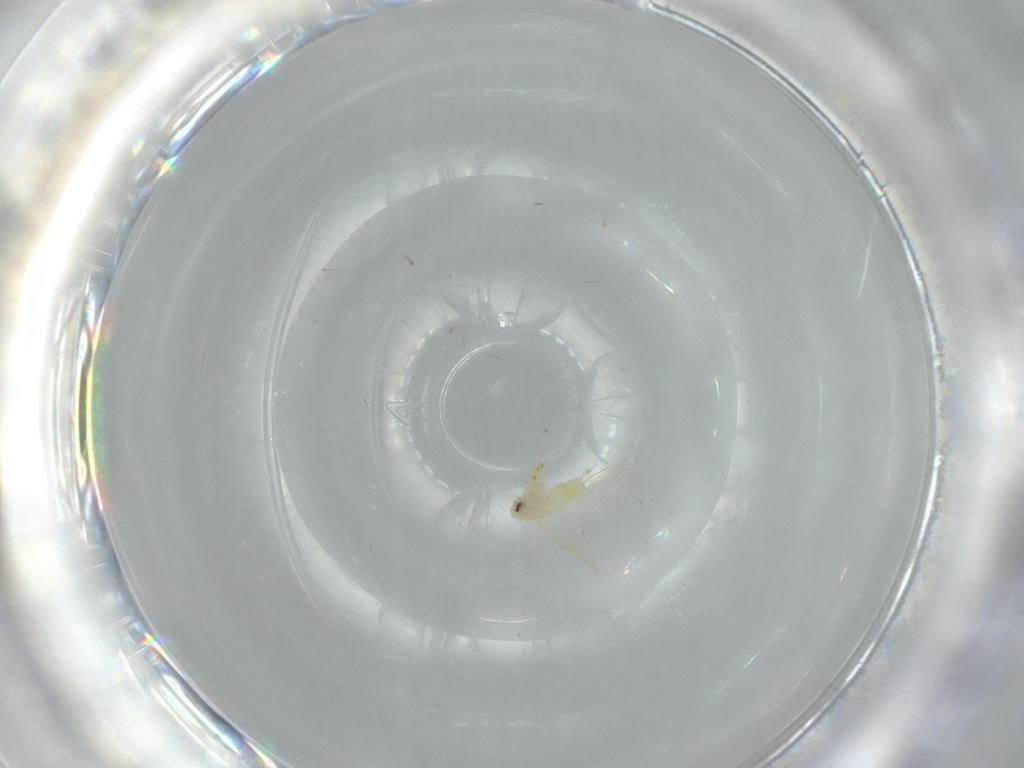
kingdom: Animalia
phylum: Arthropoda
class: Insecta
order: Hemiptera
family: Aleyrodidae
